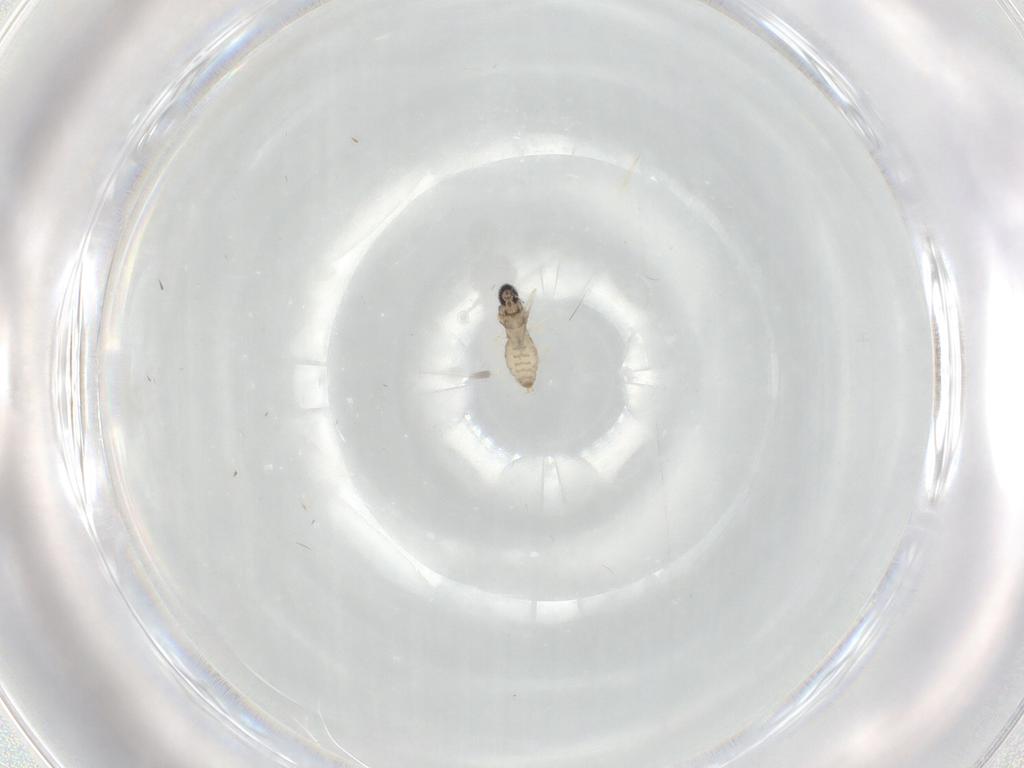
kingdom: Animalia
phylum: Arthropoda
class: Insecta
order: Diptera
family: Cecidomyiidae
